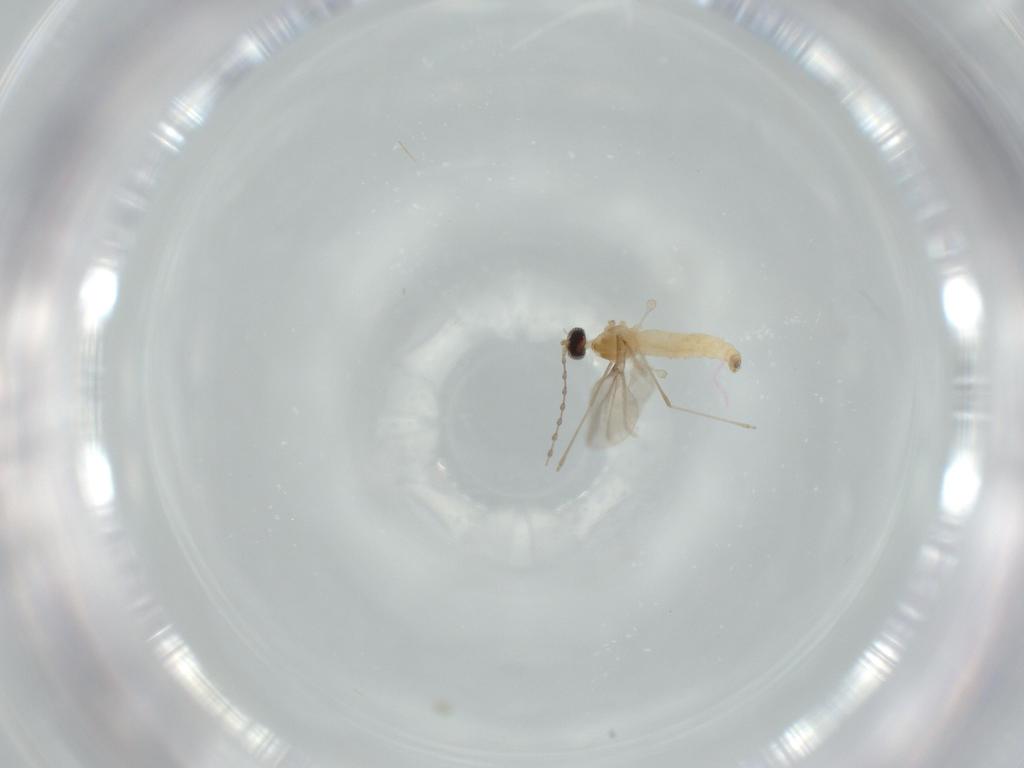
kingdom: Animalia
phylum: Arthropoda
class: Insecta
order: Diptera
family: Cecidomyiidae
